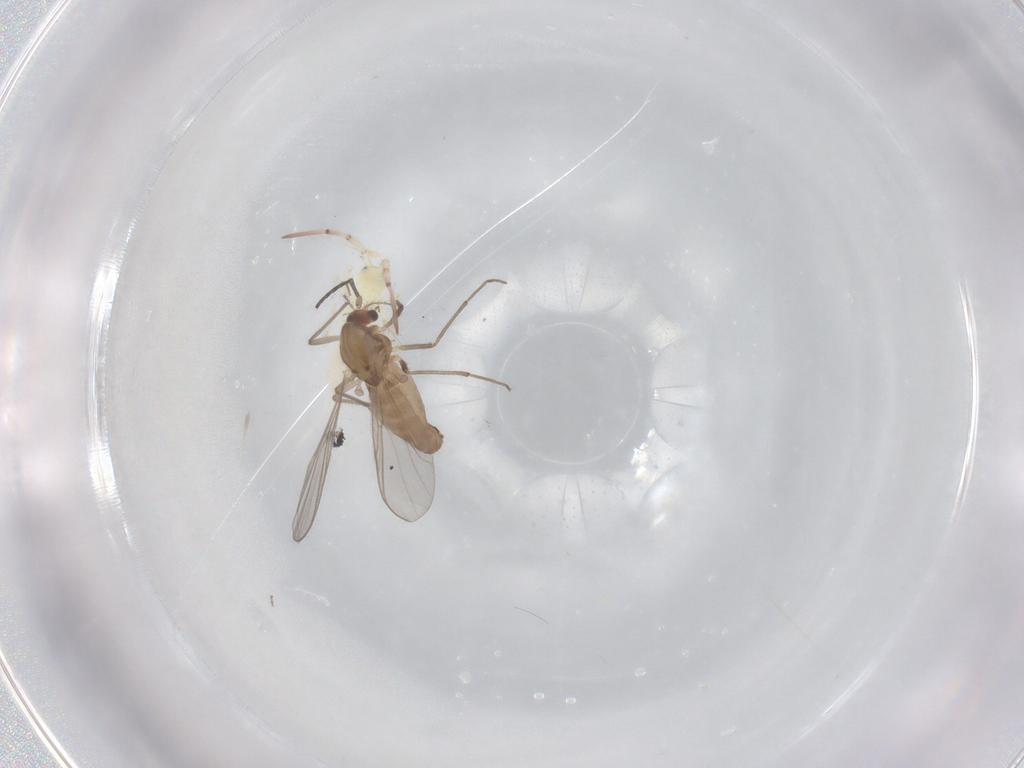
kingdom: Animalia
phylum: Arthropoda
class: Insecta
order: Diptera
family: Chironomidae
